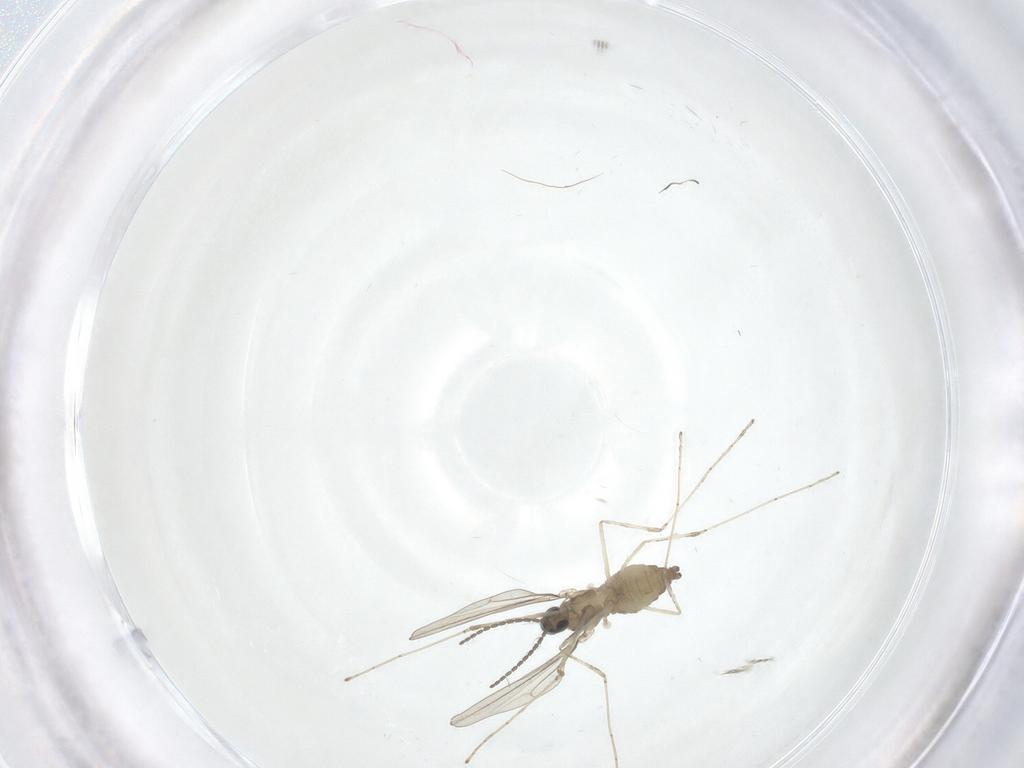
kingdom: Animalia
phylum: Arthropoda
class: Insecta
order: Diptera
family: Cecidomyiidae
